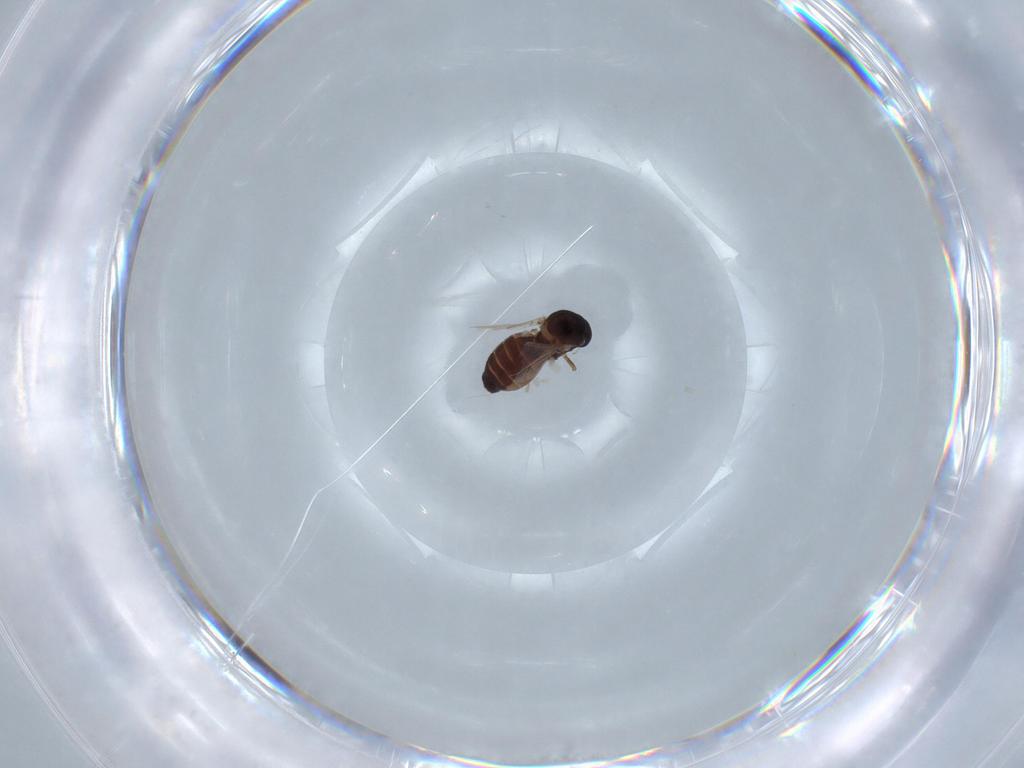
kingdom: Animalia
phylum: Arthropoda
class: Insecta
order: Diptera
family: Ceratopogonidae
